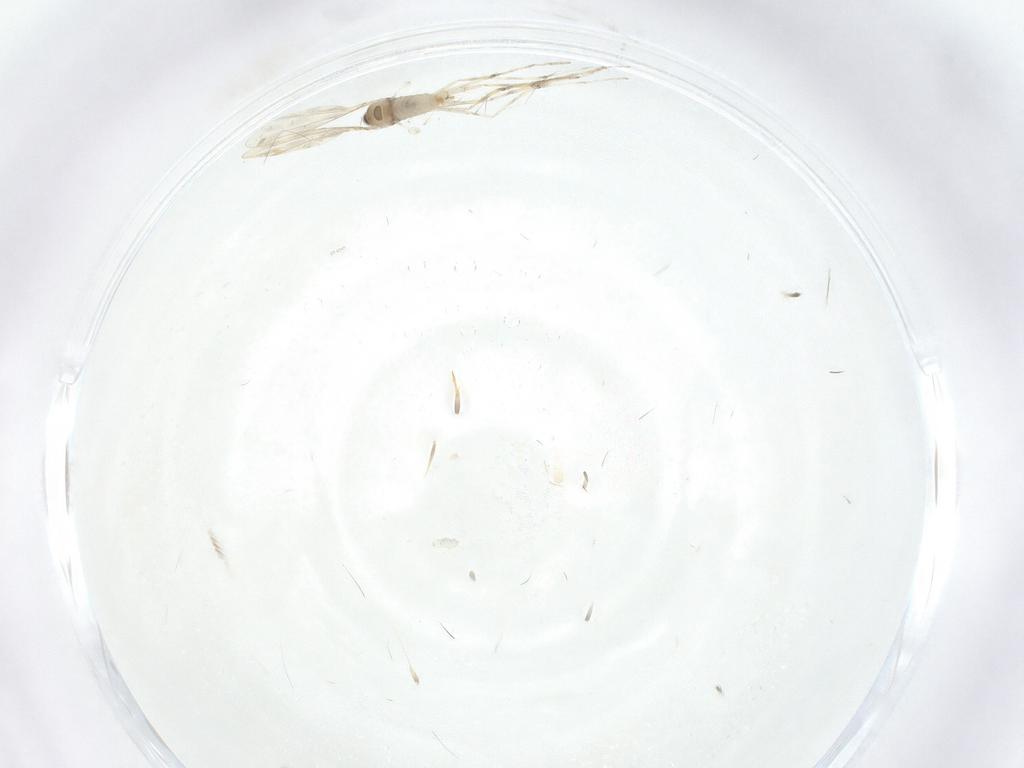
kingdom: Animalia
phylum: Arthropoda
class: Insecta
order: Diptera
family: Cecidomyiidae
